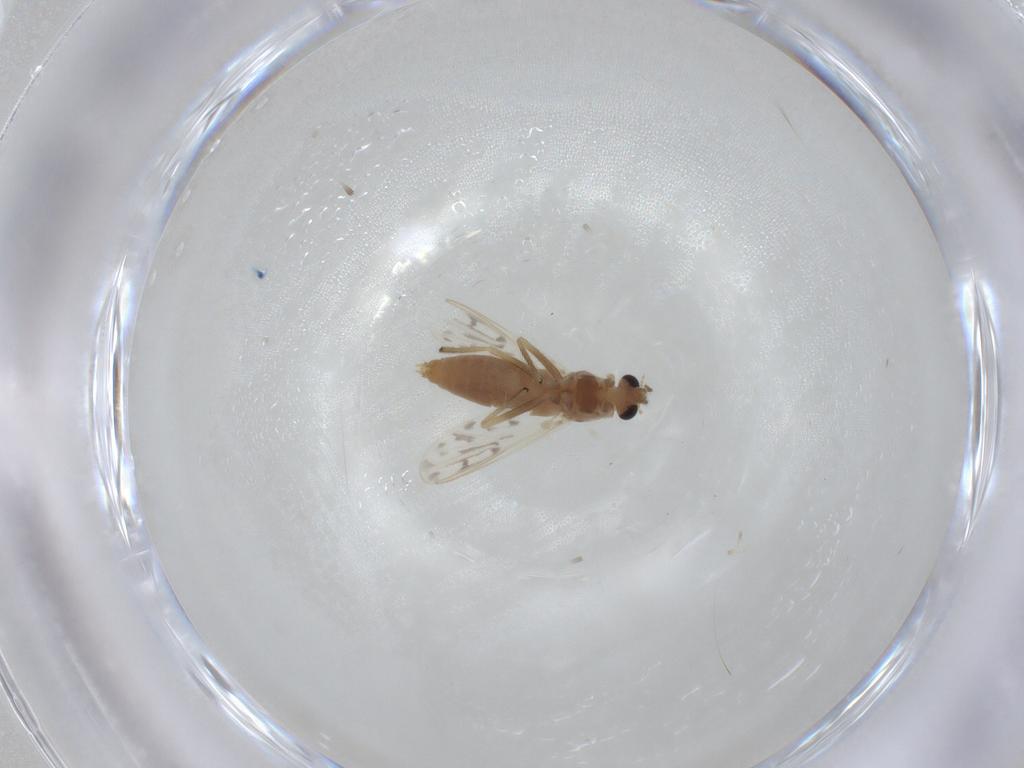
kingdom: Animalia
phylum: Arthropoda
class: Insecta
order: Diptera
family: Chironomidae
